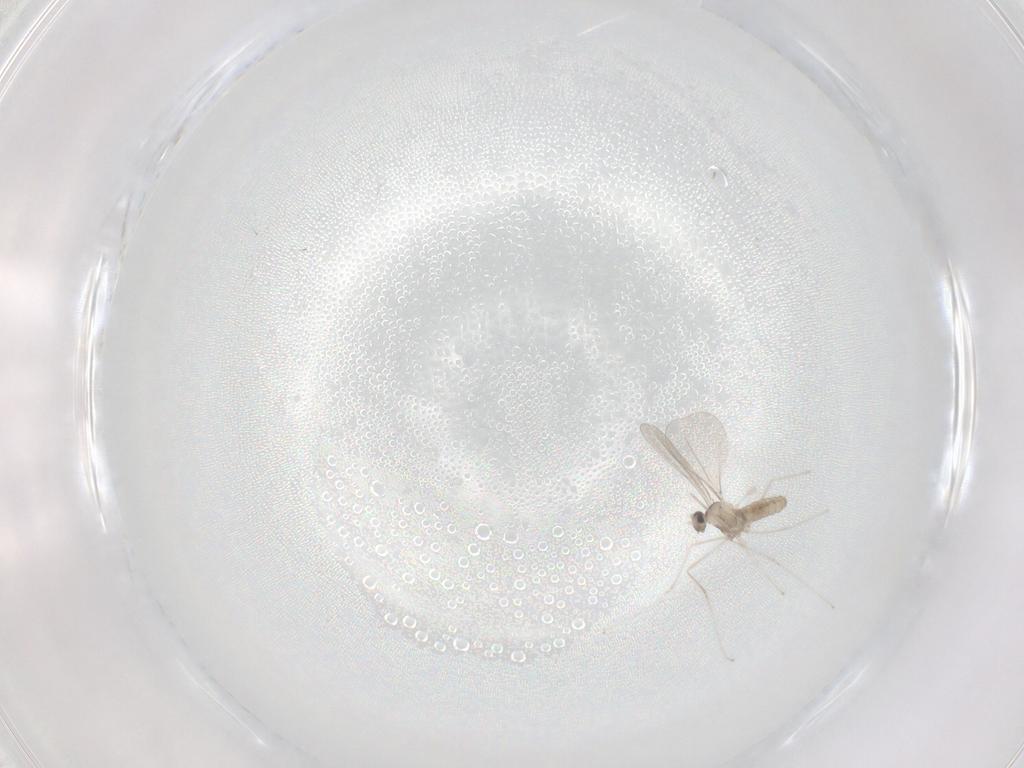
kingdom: Animalia
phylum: Arthropoda
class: Insecta
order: Diptera
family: Cecidomyiidae
